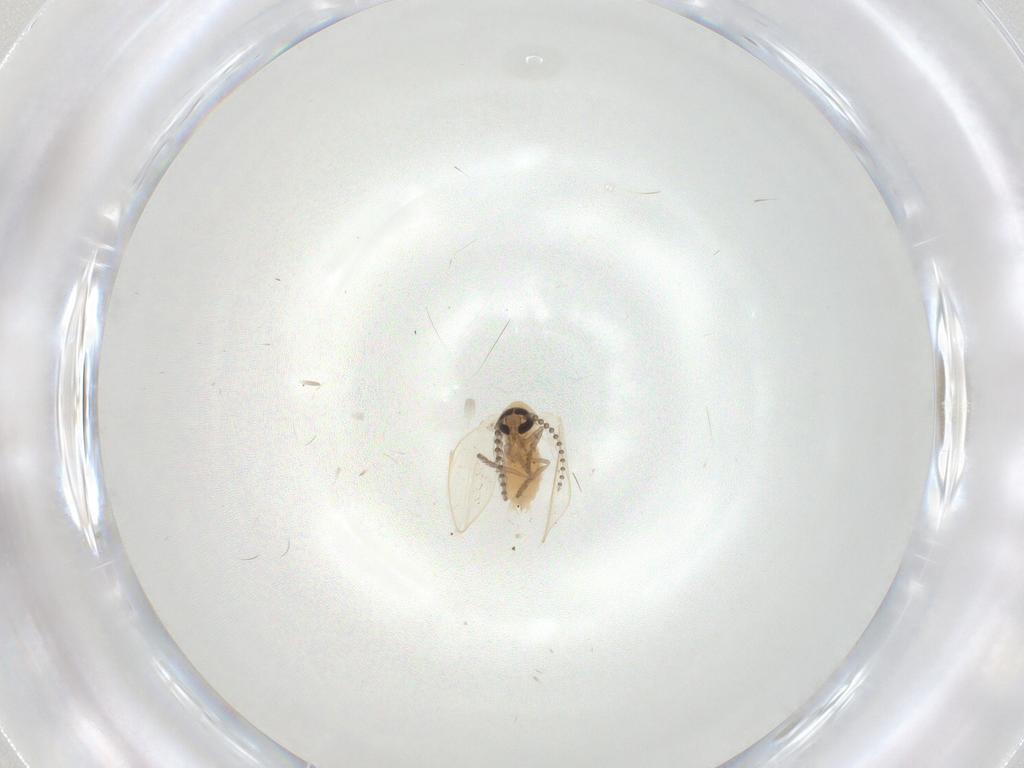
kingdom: Animalia
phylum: Arthropoda
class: Insecta
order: Diptera
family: Psychodidae
